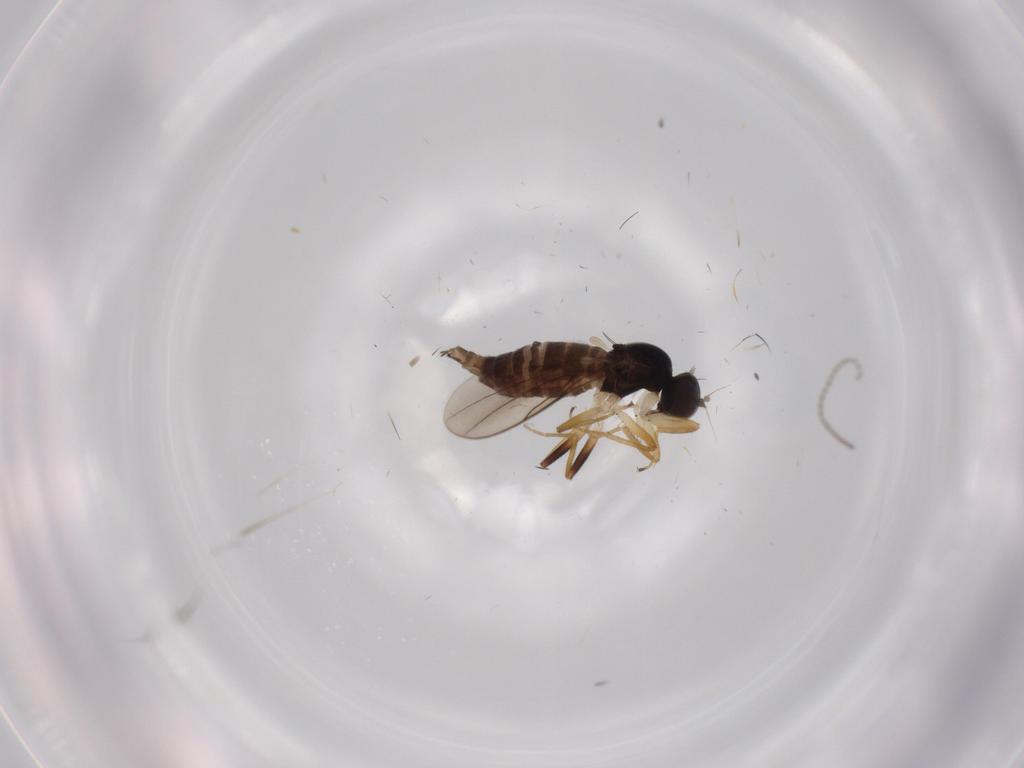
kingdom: Animalia
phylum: Arthropoda
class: Insecta
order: Diptera
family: Hybotidae
